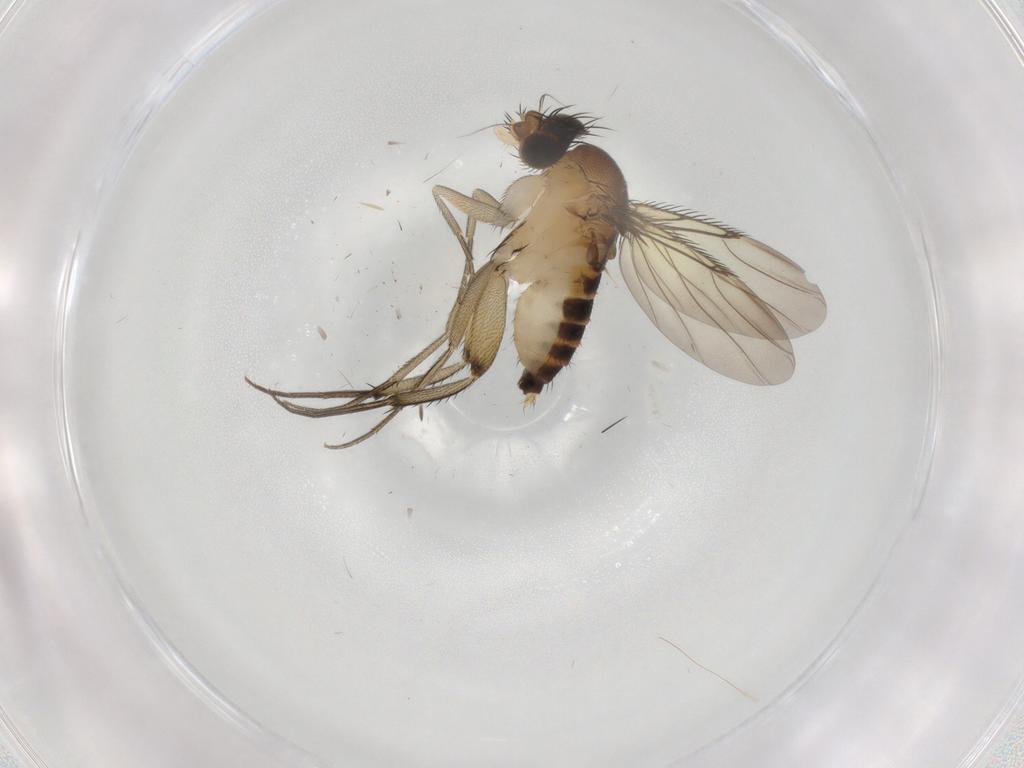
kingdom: Animalia
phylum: Arthropoda
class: Insecta
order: Diptera
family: Phoridae
